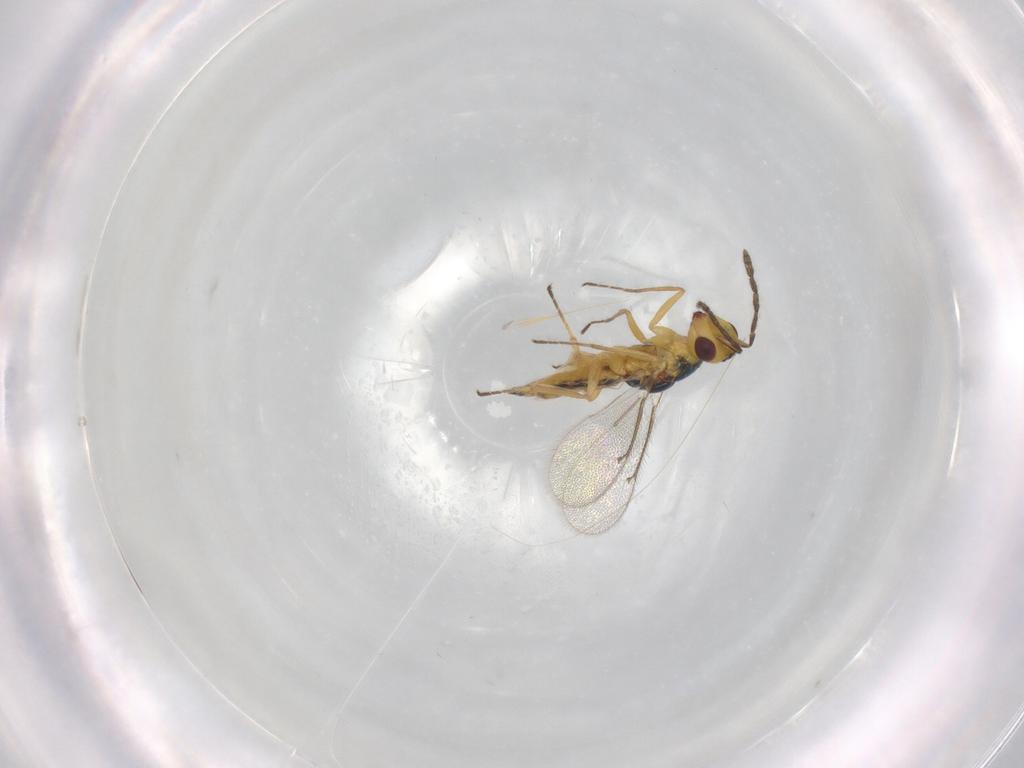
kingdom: Animalia
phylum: Arthropoda
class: Insecta
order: Hymenoptera
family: Eulophidae
